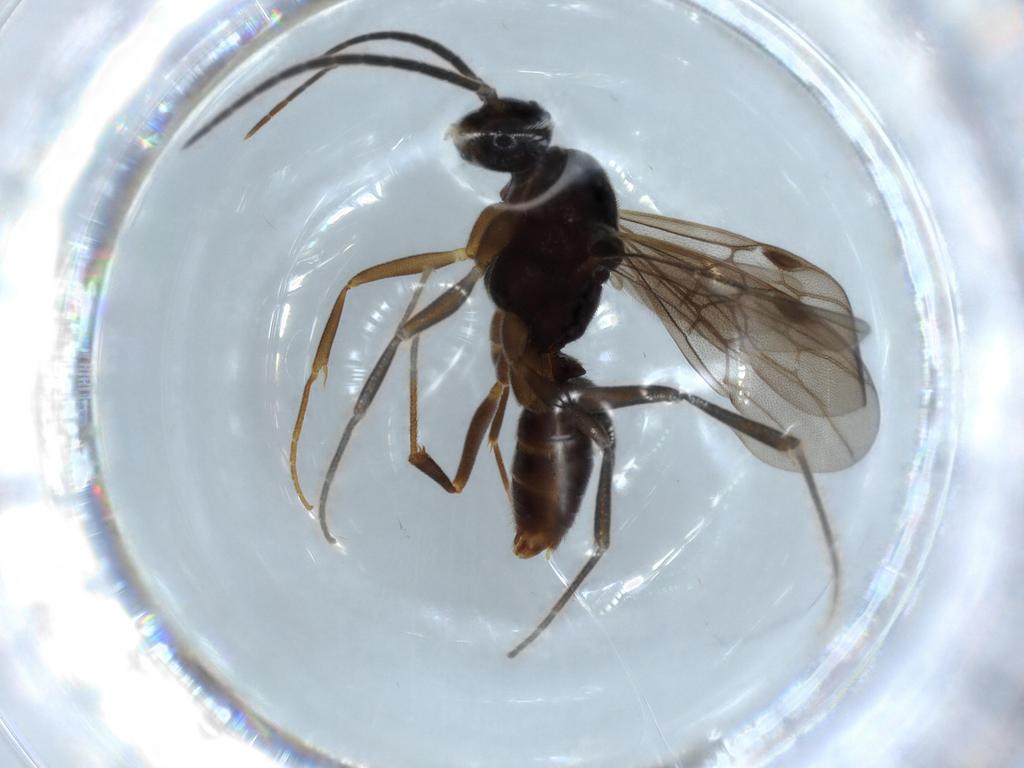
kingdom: Animalia
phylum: Arthropoda
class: Insecta
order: Hymenoptera
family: Formicidae
